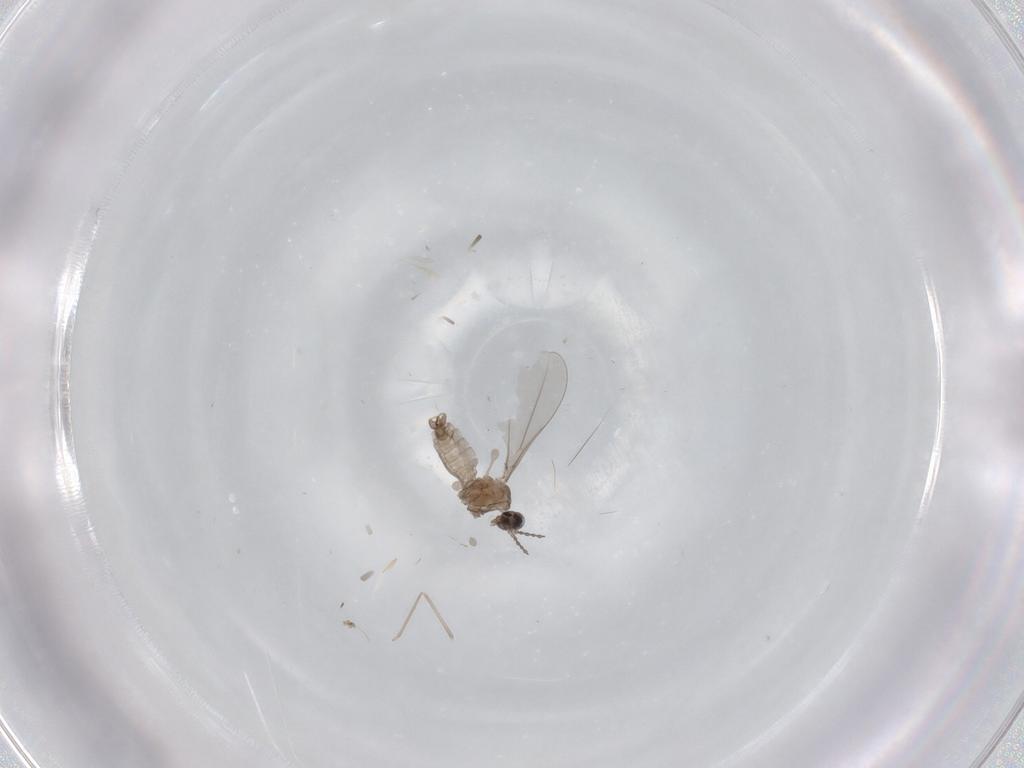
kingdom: Animalia
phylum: Arthropoda
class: Insecta
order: Diptera
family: Cecidomyiidae
